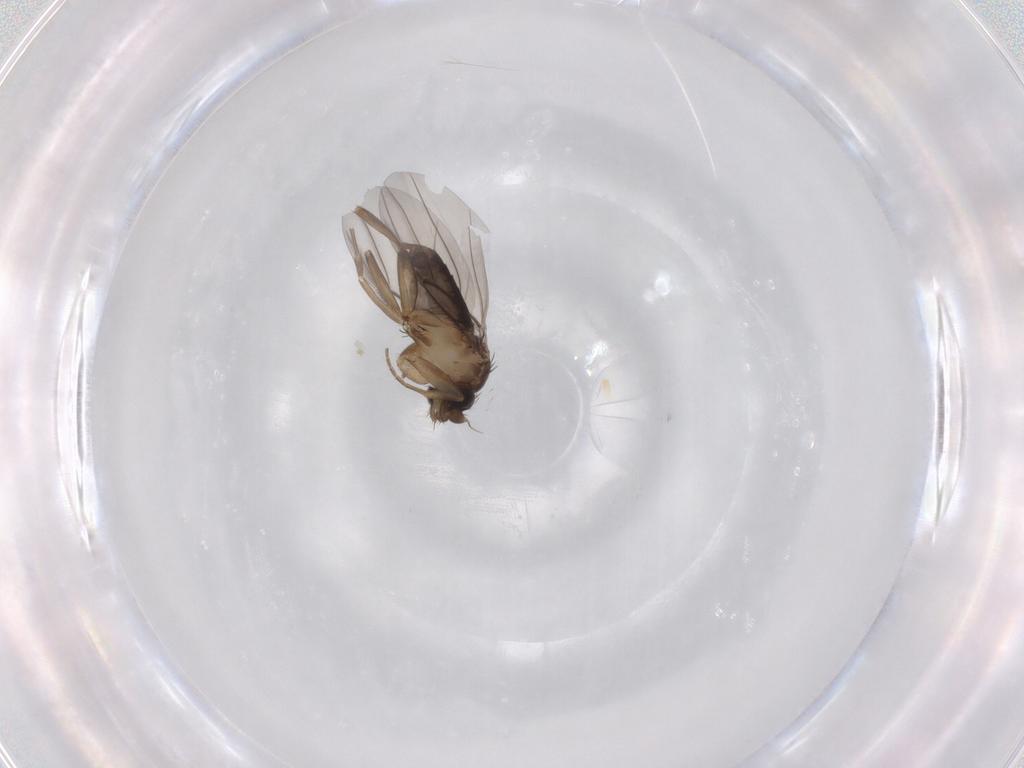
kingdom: Animalia
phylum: Arthropoda
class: Insecta
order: Diptera
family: Phoridae
